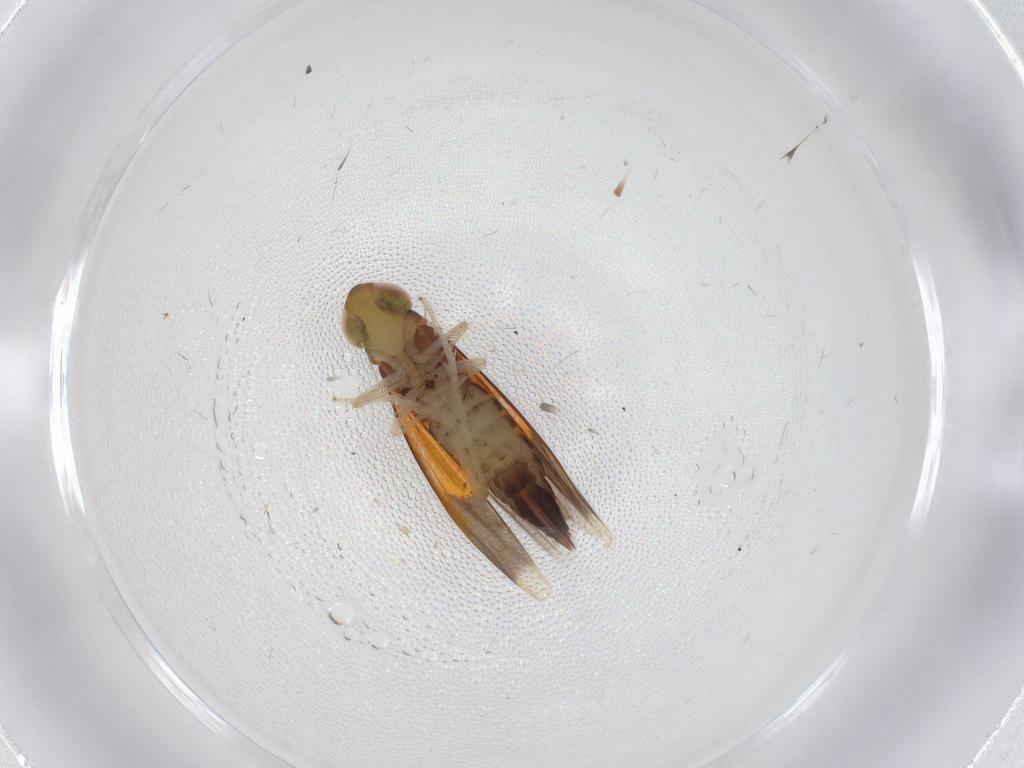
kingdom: Animalia
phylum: Arthropoda
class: Insecta
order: Hemiptera
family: Cicadellidae
